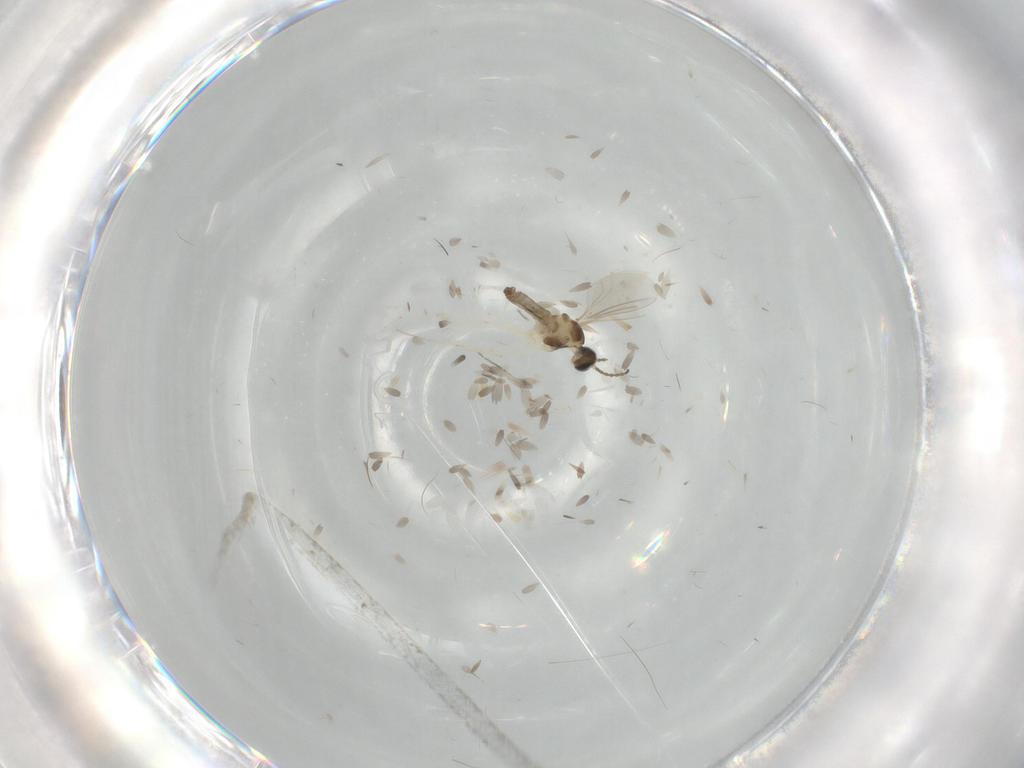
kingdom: Animalia
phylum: Arthropoda
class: Insecta
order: Diptera
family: Cecidomyiidae
